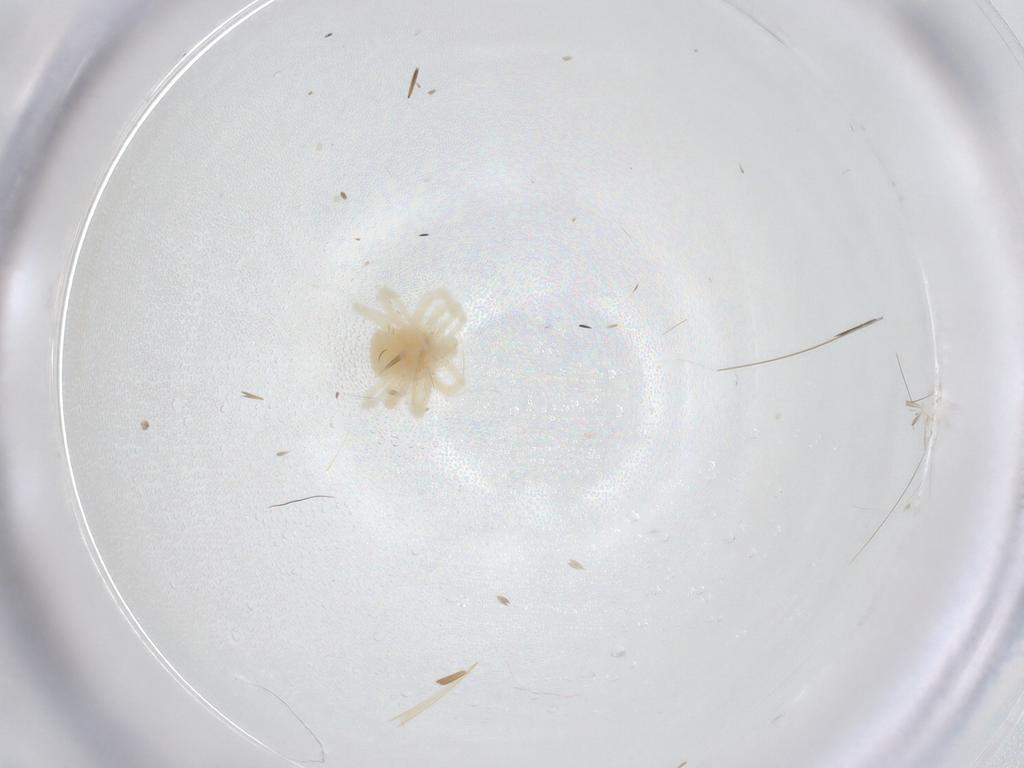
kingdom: Animalia
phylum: Arthropoda
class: Arachnida
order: Trombidiformes
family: Anystidae
